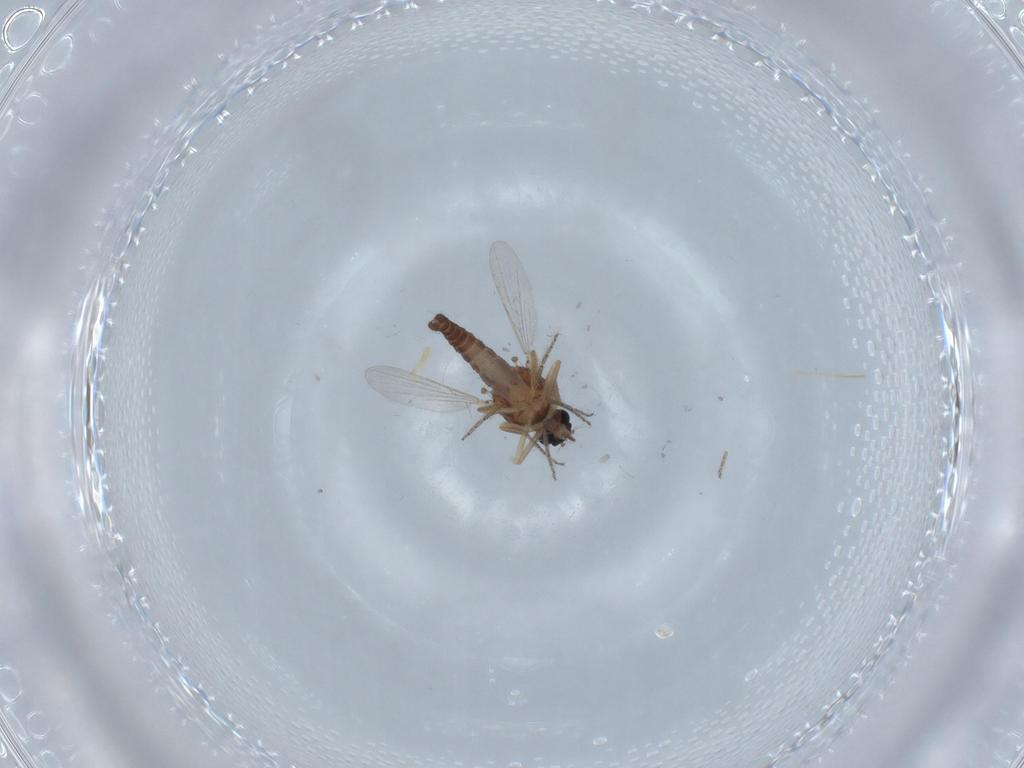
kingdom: Animalia
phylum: Arthropoda
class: Insecta
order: Diptera
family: Ceratopogonidae
